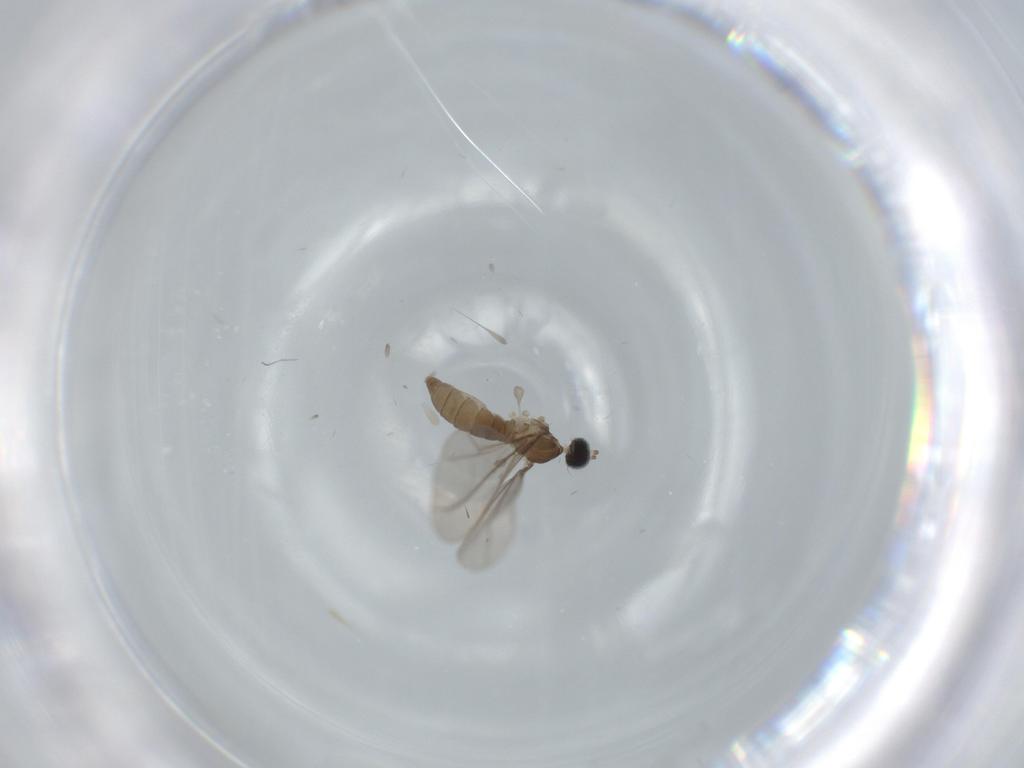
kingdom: Animalia
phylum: Arthropoda
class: Insecta
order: Diptera
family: Cecidomyiidae
